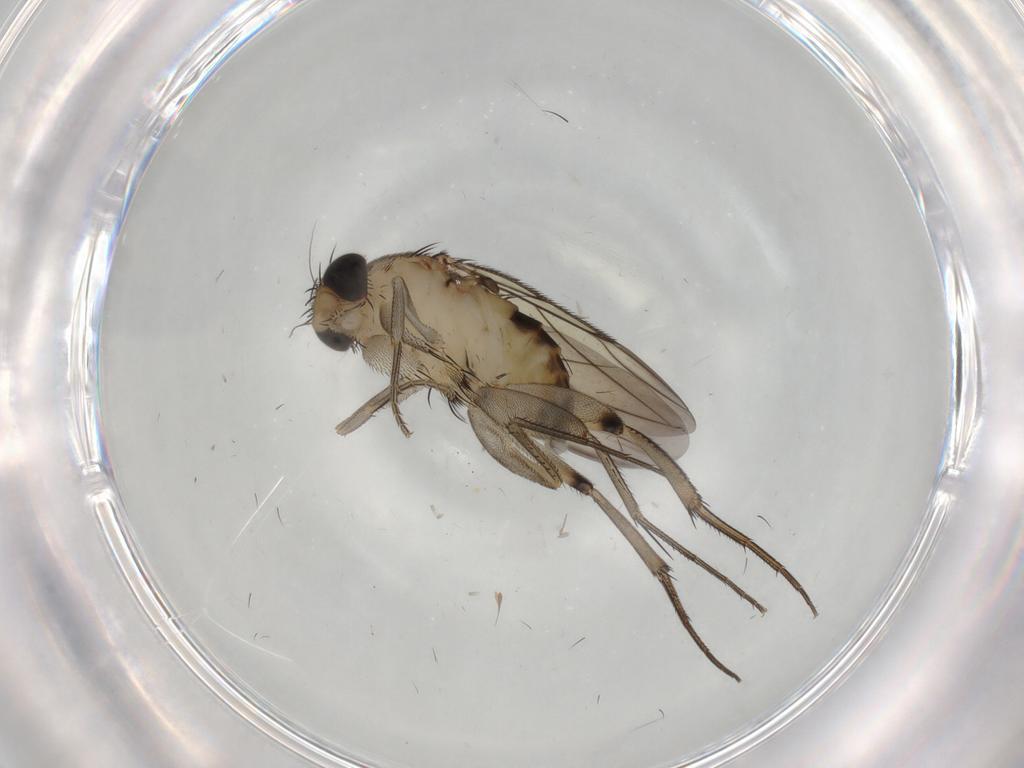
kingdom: Animalia
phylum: Arthropoda
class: Insecta
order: Diptera
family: Phoridae
